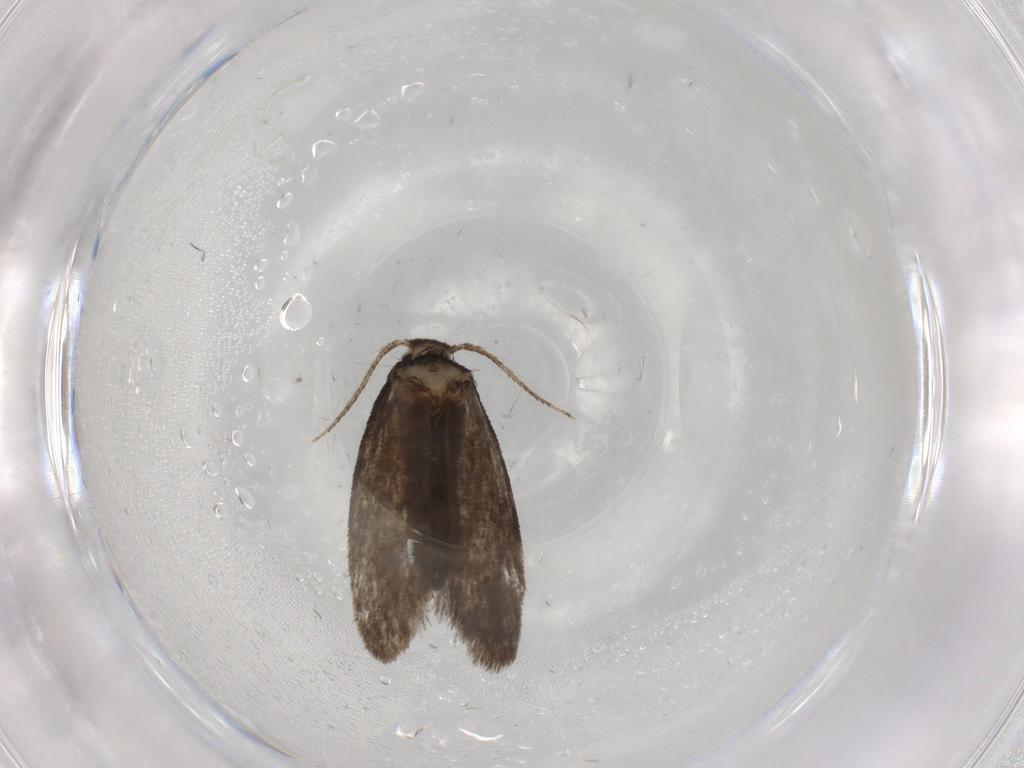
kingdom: Animalia
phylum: Arthropoda
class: Insecta
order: Lepidoptera
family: Psychidae
